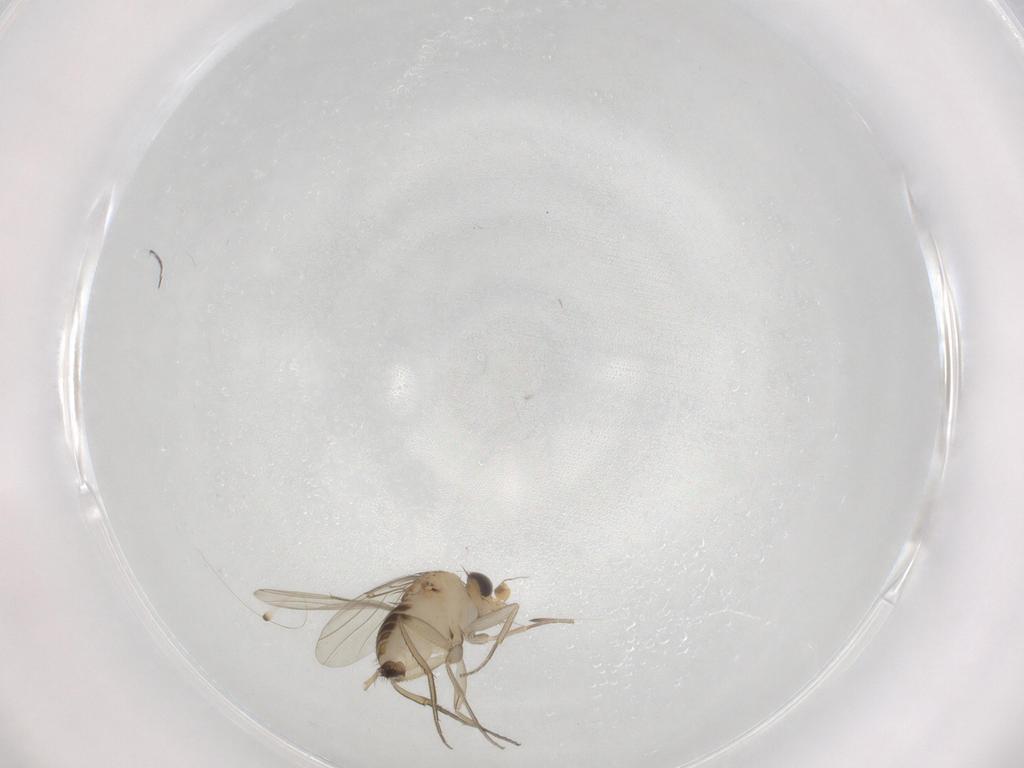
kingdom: Animalia
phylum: Arthropoda
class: Insecta
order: Diptera
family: Phoridae
